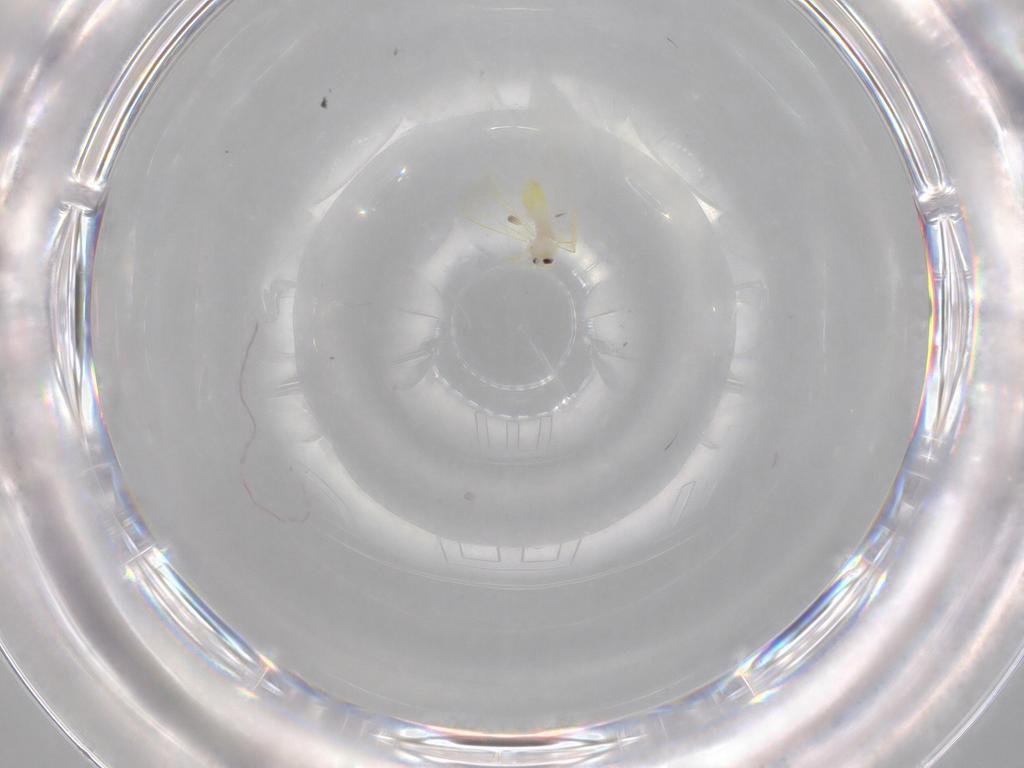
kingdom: Animalia
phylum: Arthropoda
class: Insecta
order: Hemiptera
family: Aleyrodidae
